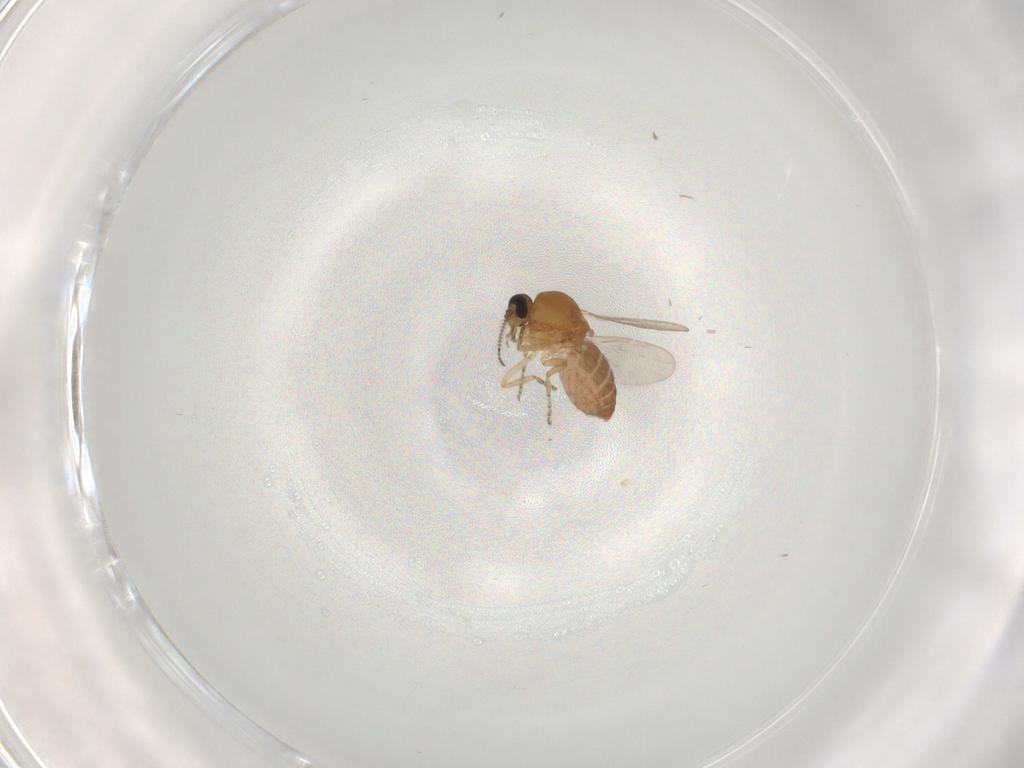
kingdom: Animalia
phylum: Arthropoda
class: Insecta
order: Diptera
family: Ceratopogonidae
